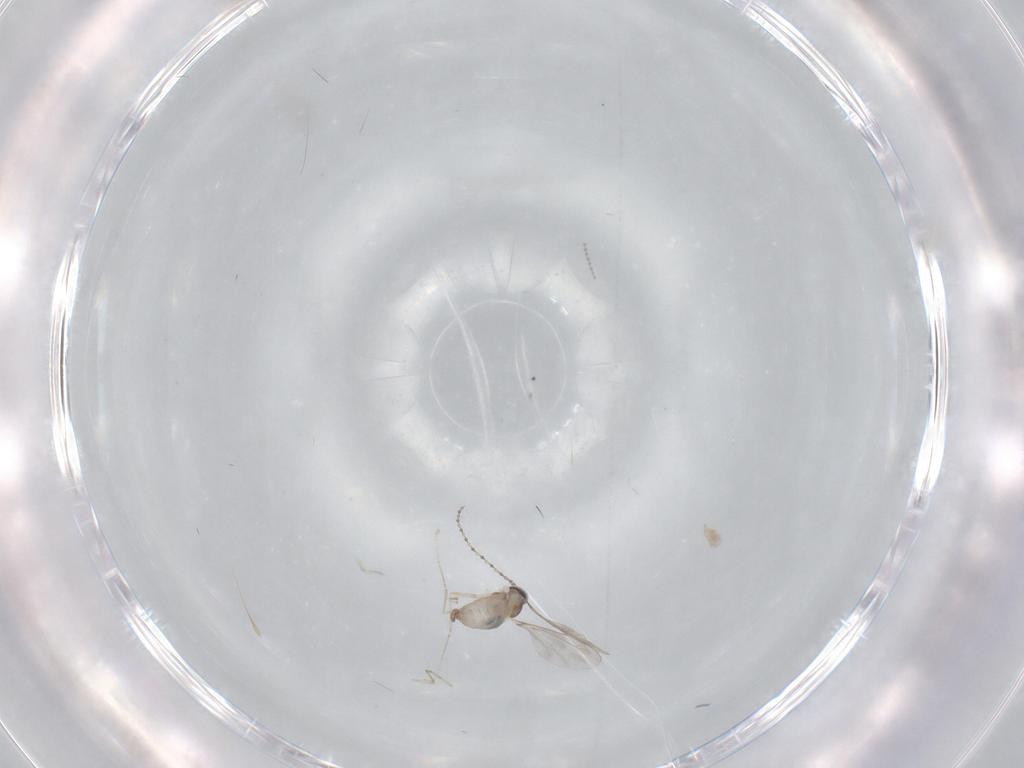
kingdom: Animalia
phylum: Arthropoda
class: Insecta
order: Diptera
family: Cecidomyiidae
